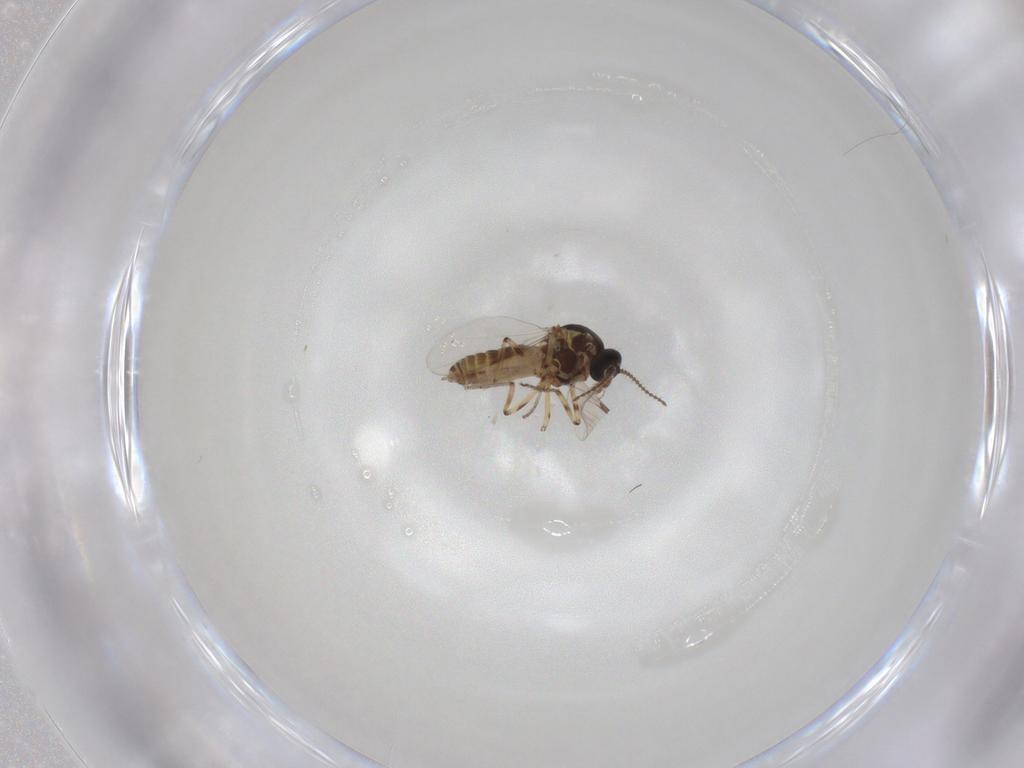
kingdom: Animalia
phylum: Arthropoda
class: Insecta
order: Diptera
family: Ceratopogonidae
